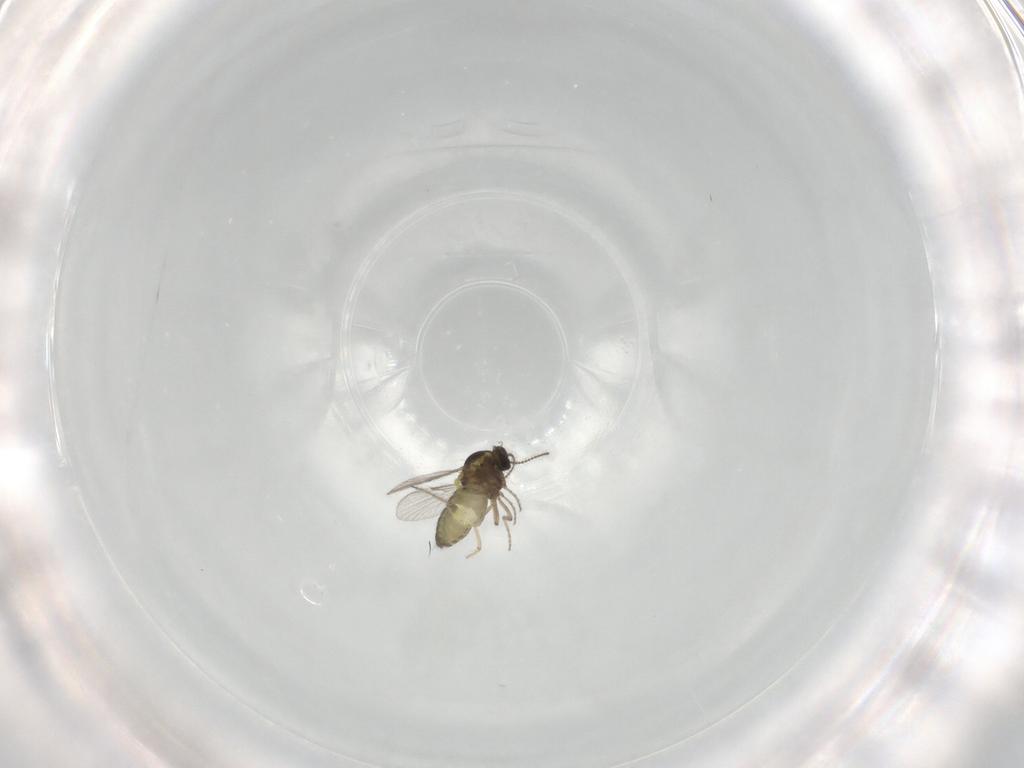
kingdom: Animalia
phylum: Arthropoda
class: Insecta
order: Diptera
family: Ceratopogonidae
